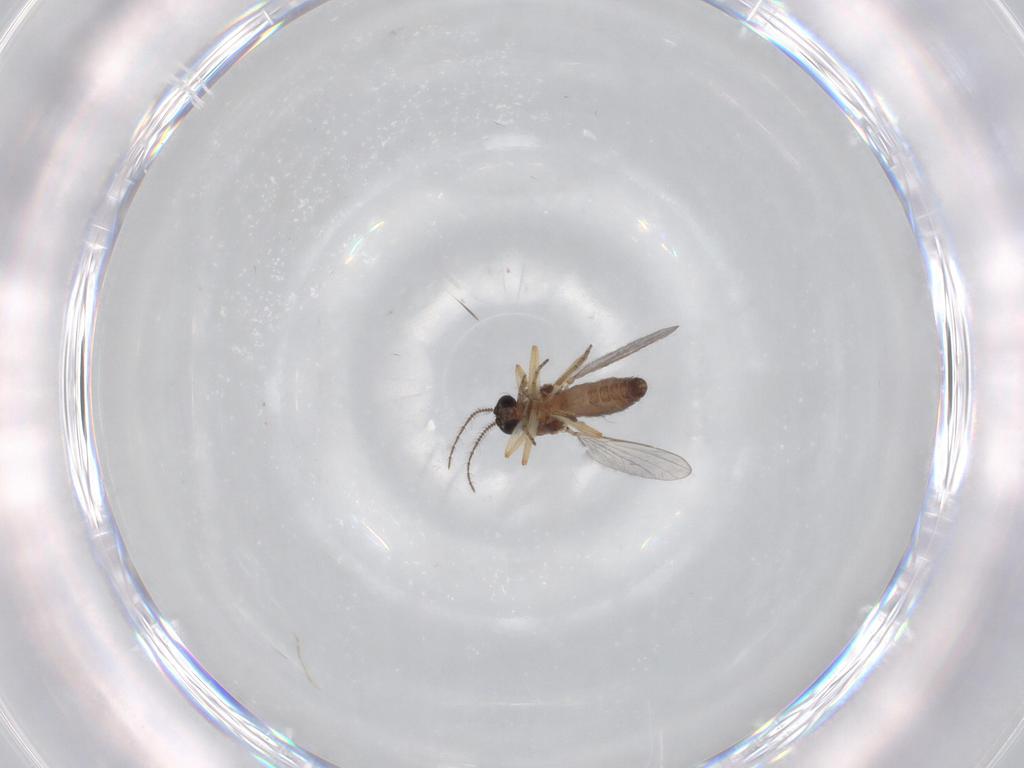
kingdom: Animalia
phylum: Arthropoda
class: Insecta
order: Diptera
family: Ceratopogonidae
